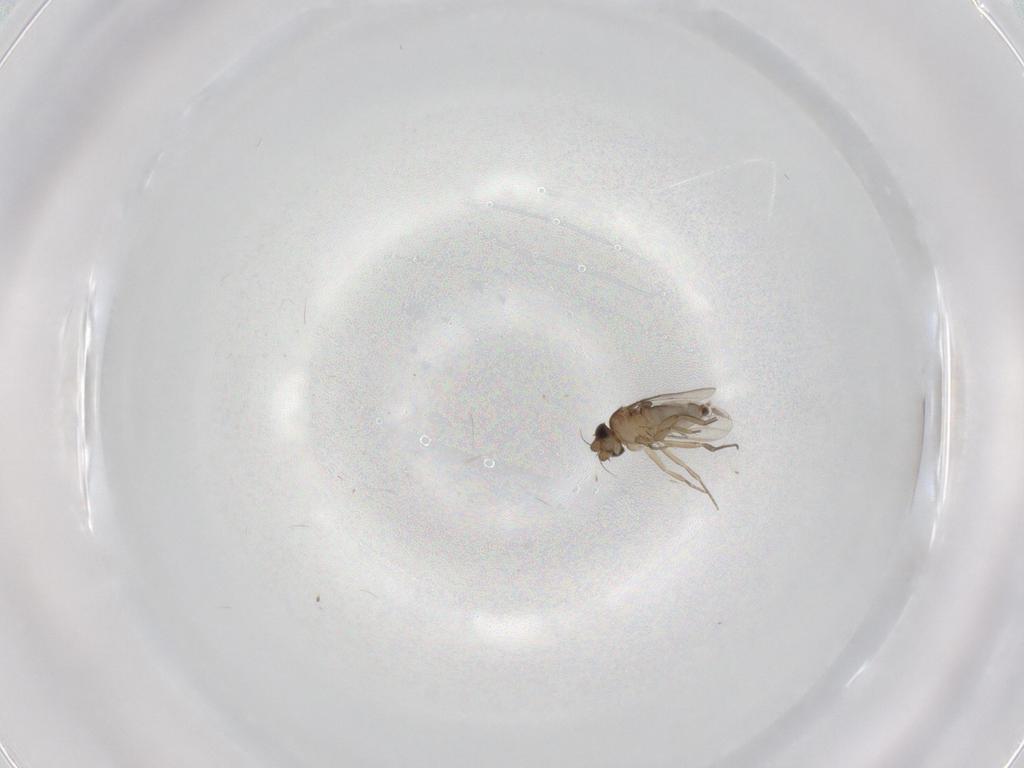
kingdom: Animalia
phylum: Arthropoda
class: Insecta
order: Diptera
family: Phoridae
